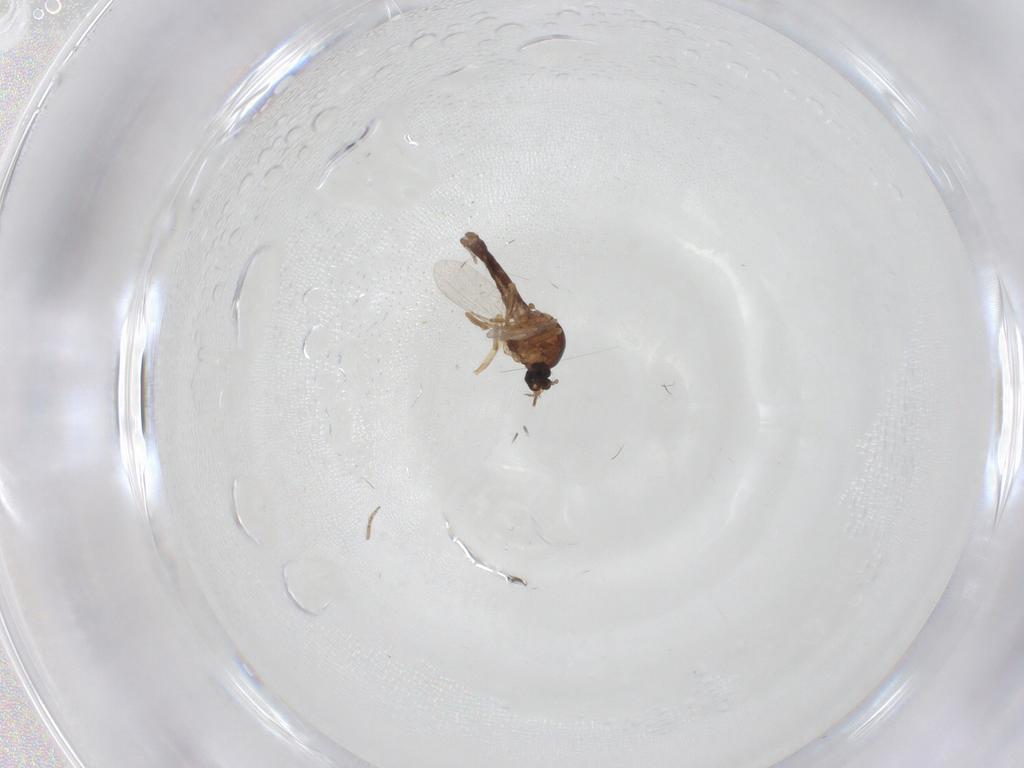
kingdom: Animalia
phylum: Arthropoda
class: Insecta
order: Diptera
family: Ceratopogonidae
